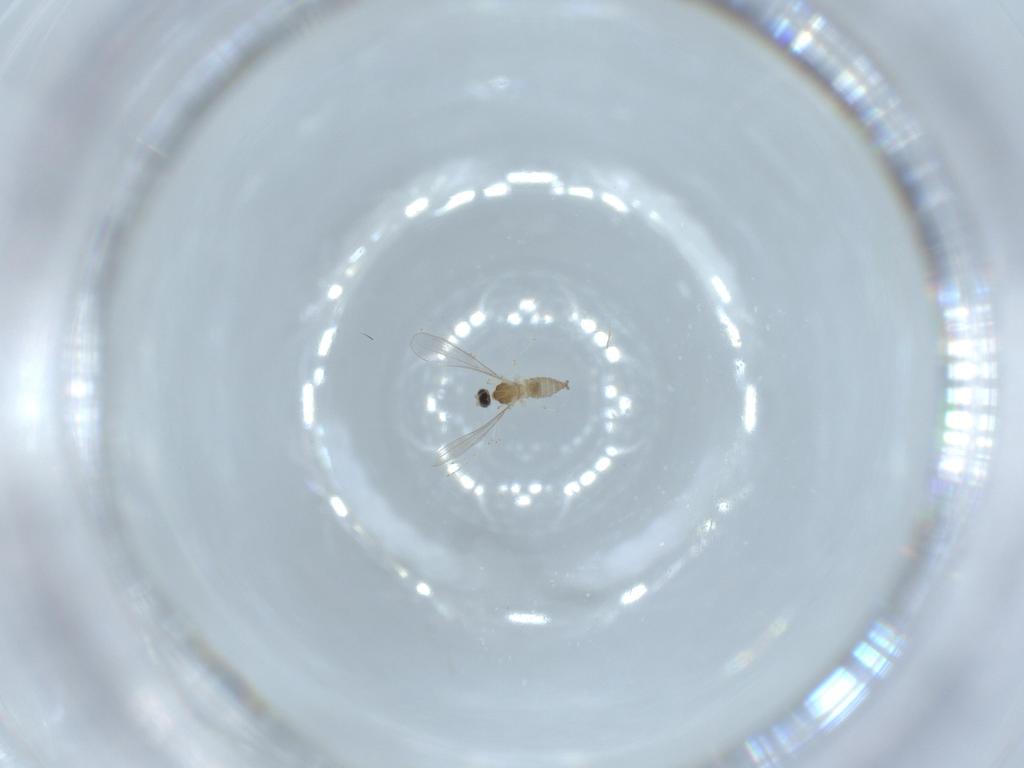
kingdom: Animalia
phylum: Arthropoda
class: Insecta
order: Diptera
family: Cecidomyiidae
